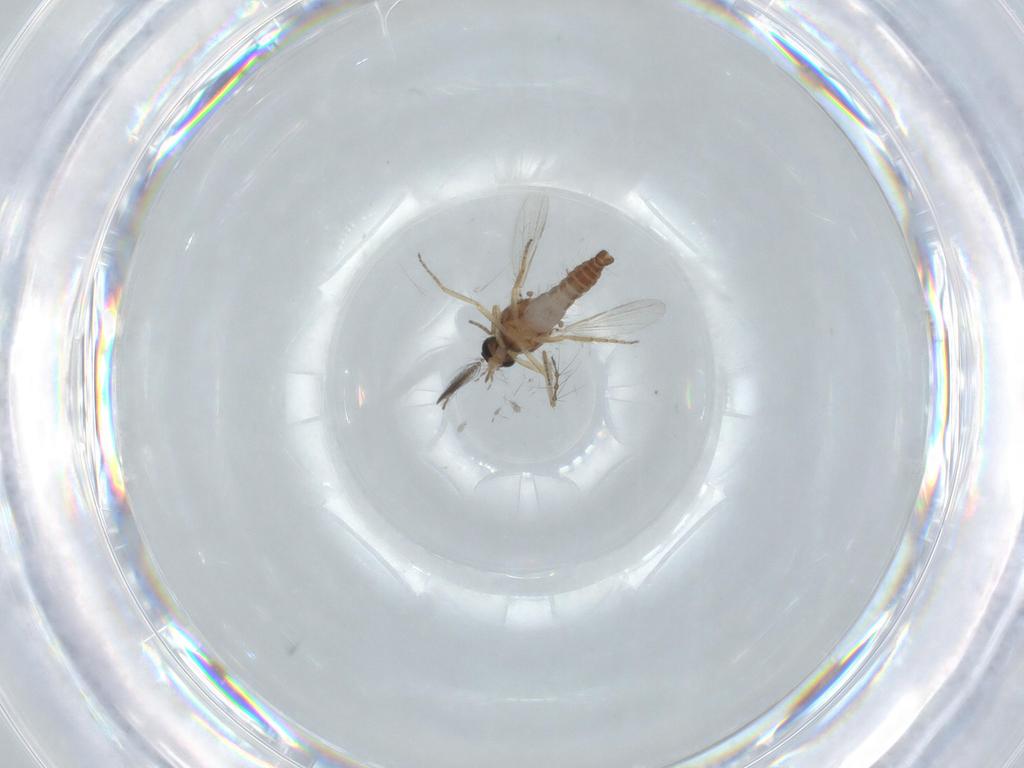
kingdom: Animalia
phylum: Arthropoda
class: Insecta
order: Diptera
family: Ceratopogonidae
